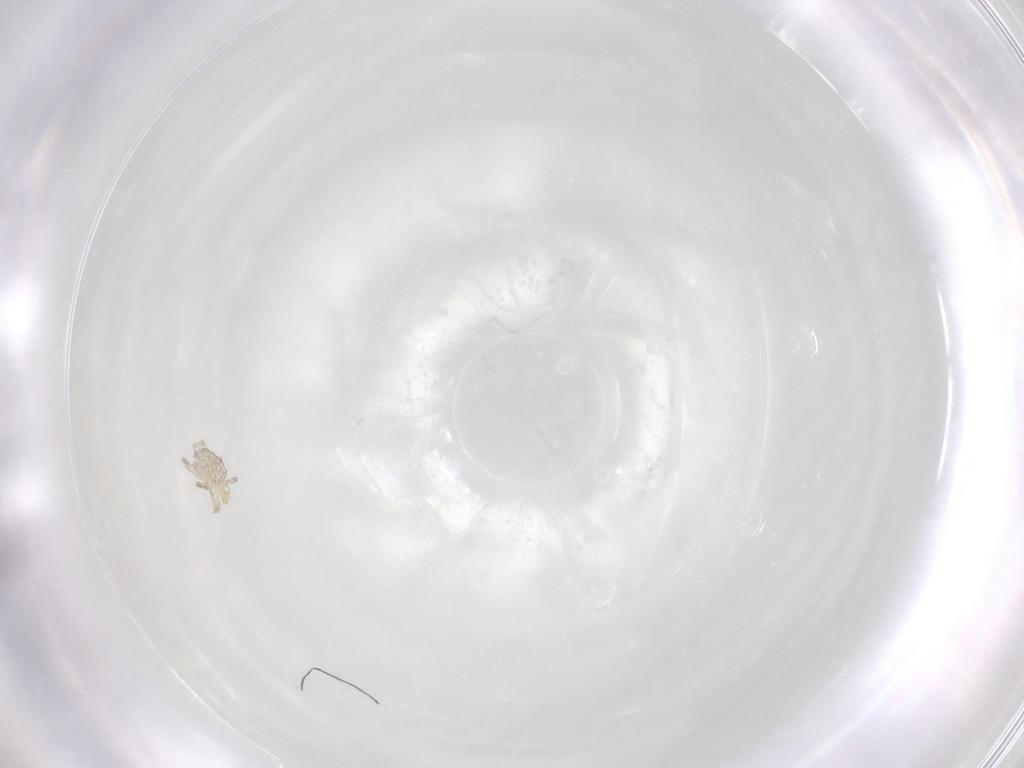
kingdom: Animalia
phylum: Arthropoda
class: Arachnida
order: Trombidiformes
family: Erythraeidae
